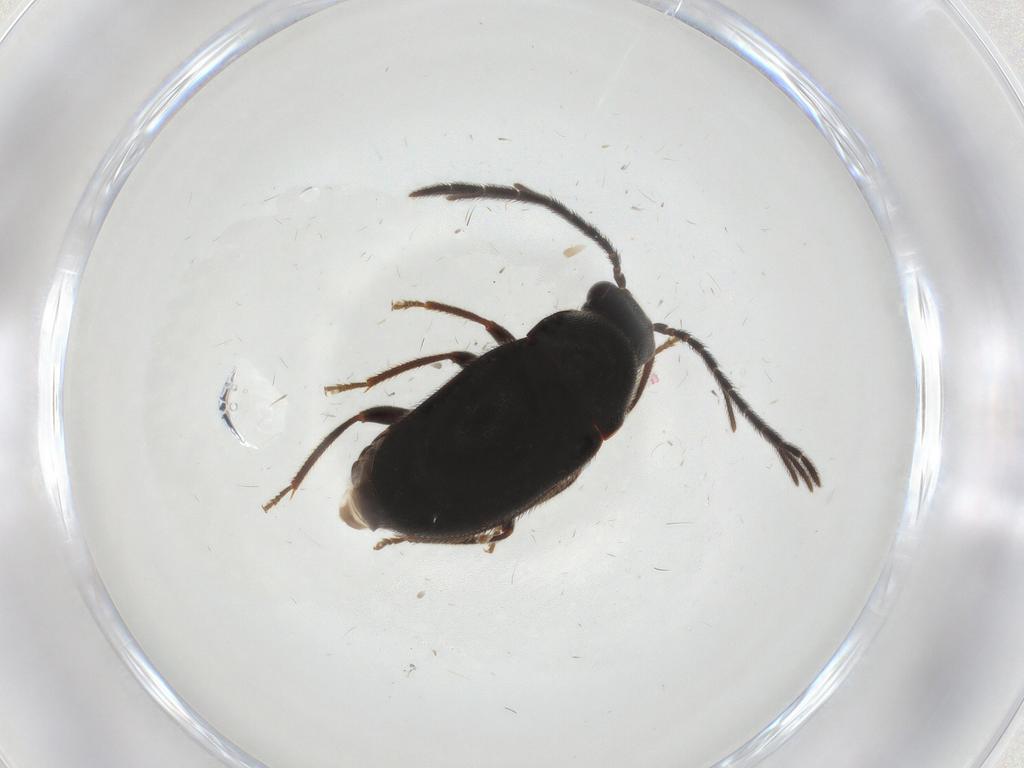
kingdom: Animalia
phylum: Arthropoda
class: Insecta
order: Coleoptera
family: Ptilodactylidae
